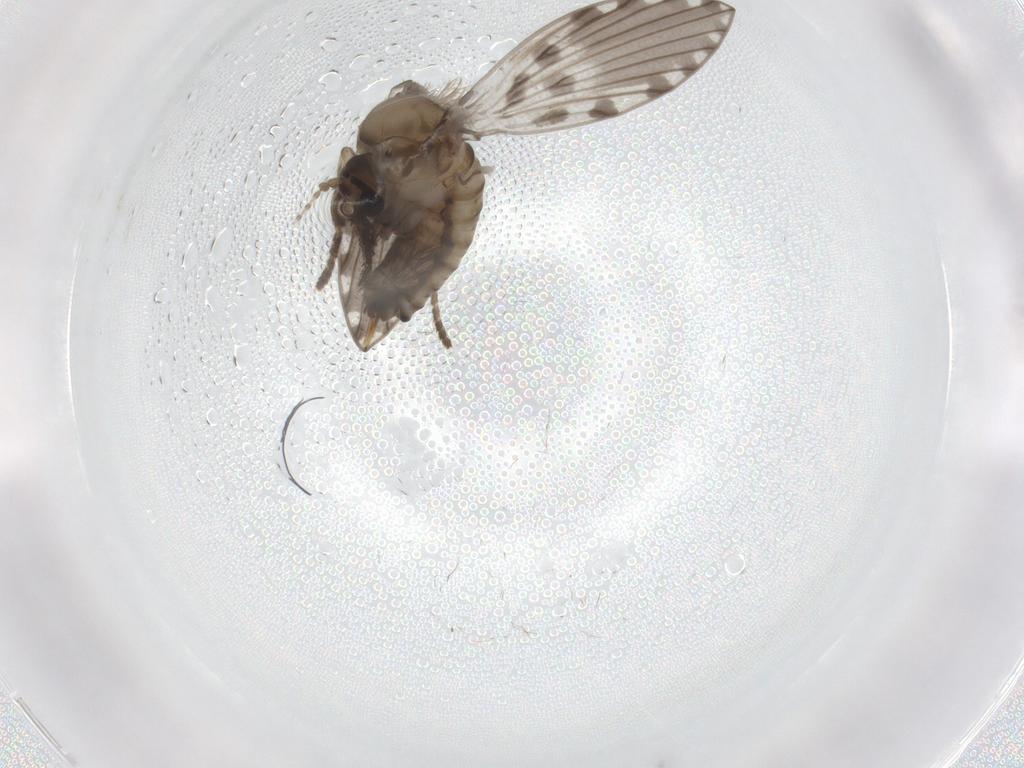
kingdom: Animalia
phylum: Arthropoda
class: Insecta
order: Diptera
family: Psychodidae
